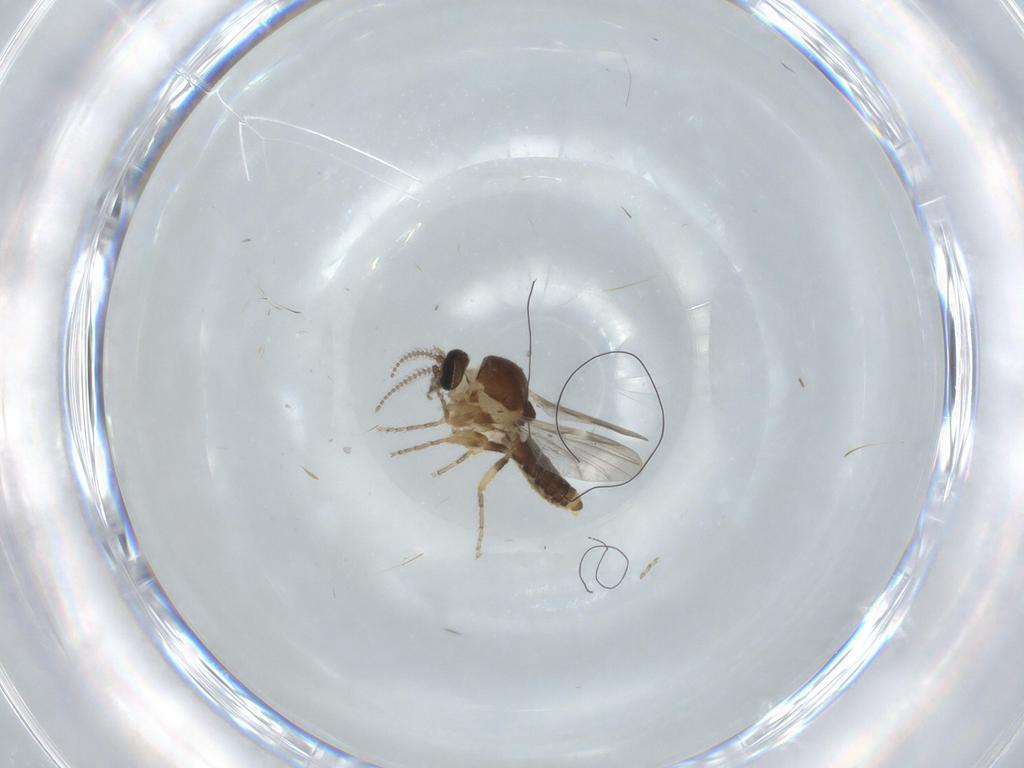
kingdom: Animalia
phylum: Arthropoda
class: Insecta
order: Diptera
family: Ceratopogonidae
